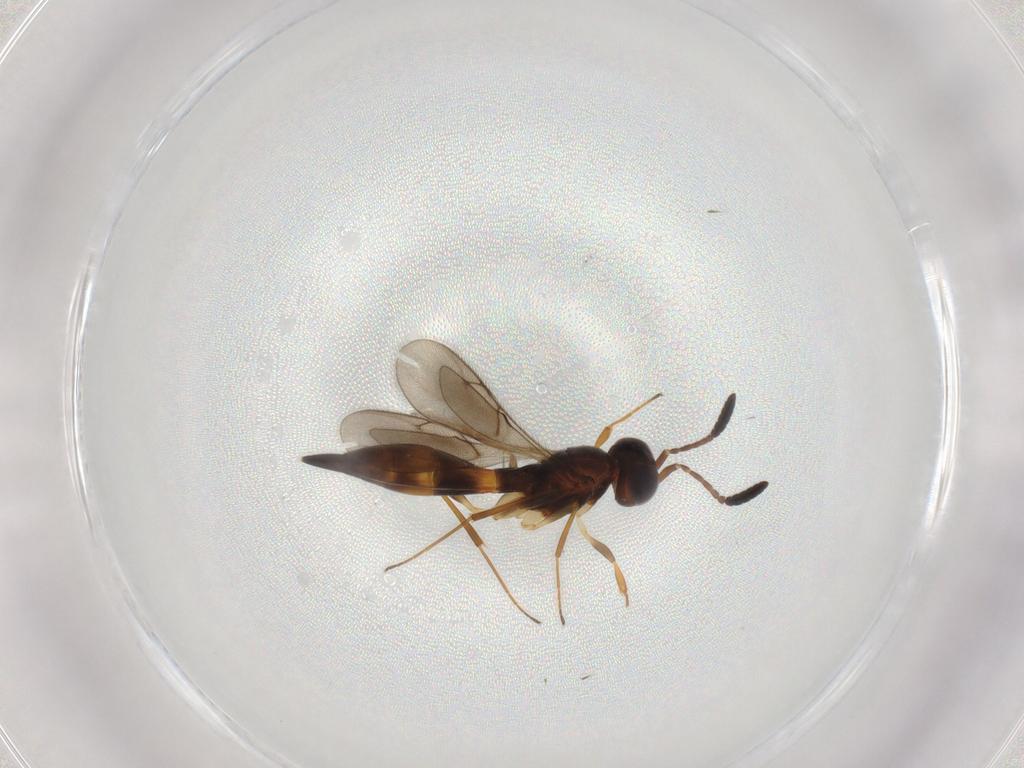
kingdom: Animalia
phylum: Arthropoda
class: Insecta
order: Hymenoptera
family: Scelionidae
